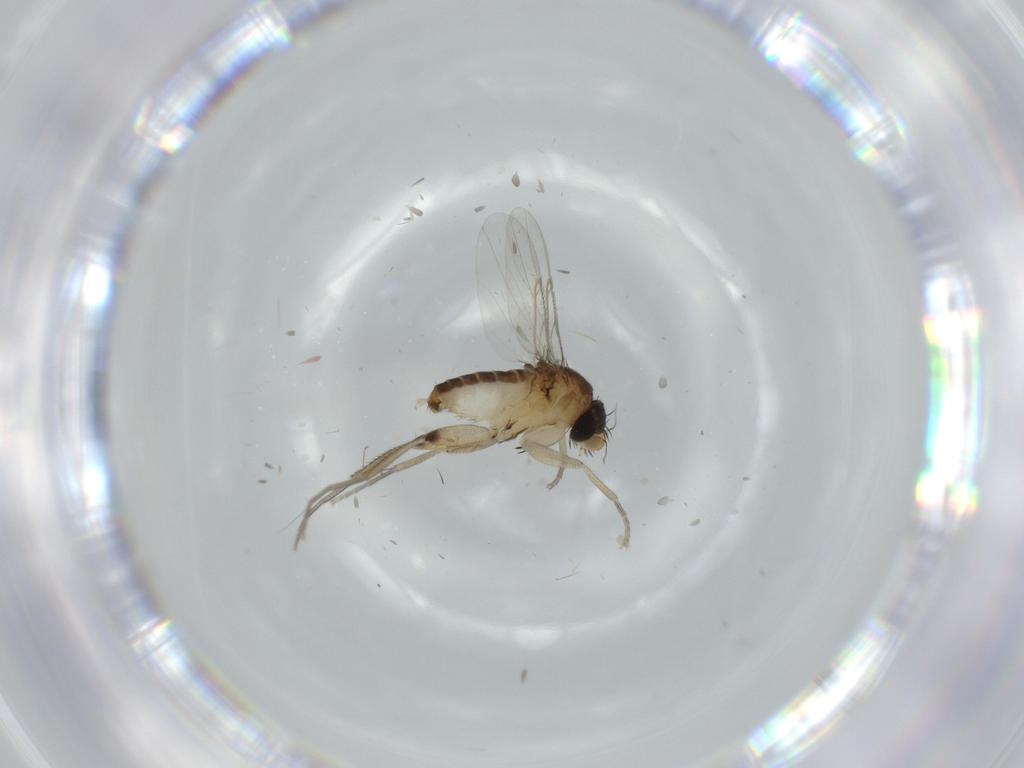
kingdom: Animalia
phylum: Arthropoda
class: Insecta
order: Diptera
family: Phoridae
